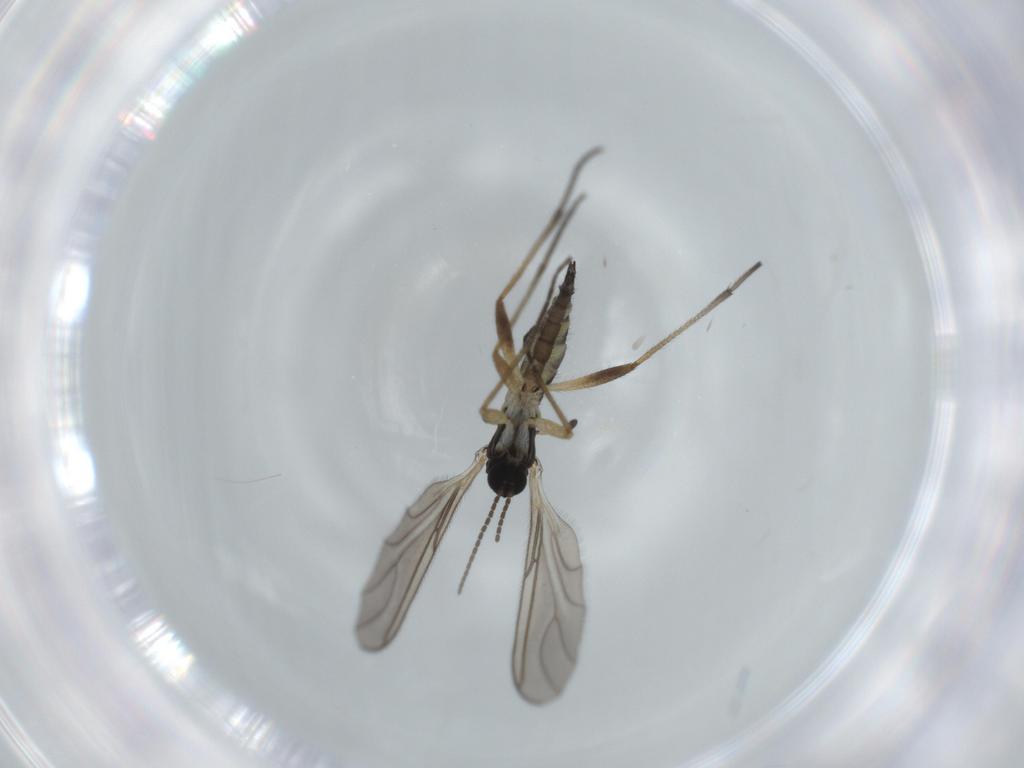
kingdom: Animalia
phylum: Arthropoda
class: Insecta
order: Diptera
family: Sciaridae
